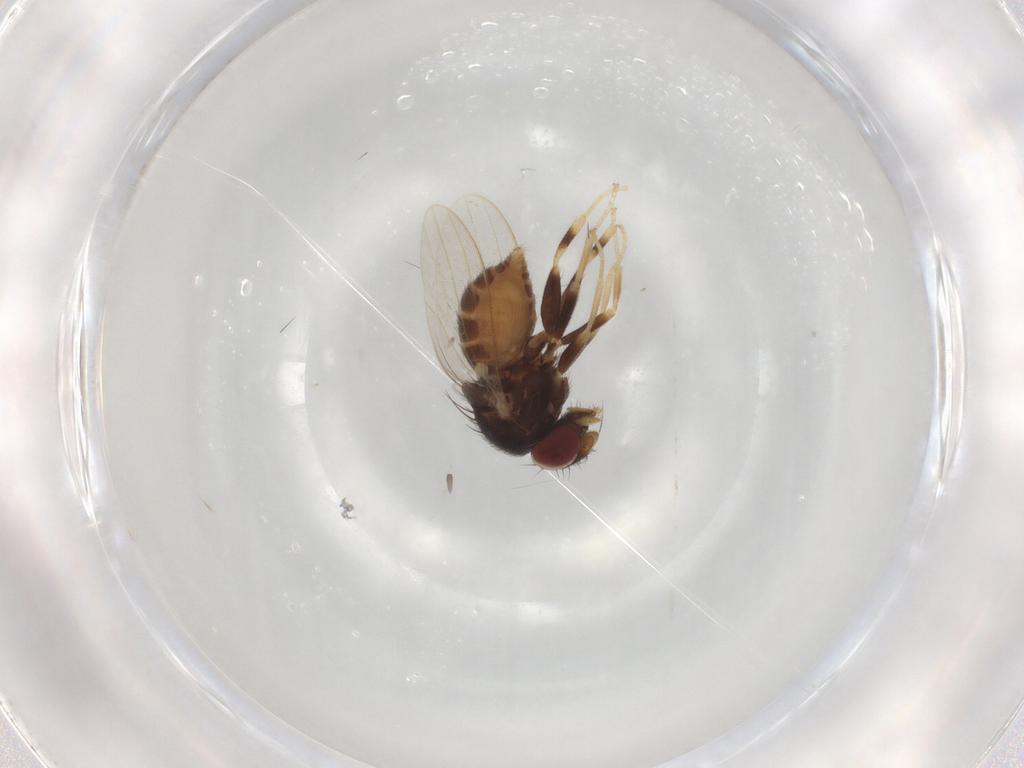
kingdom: Animalia
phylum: Arthropoda
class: Insecta
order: Diptera
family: Milichiidae
